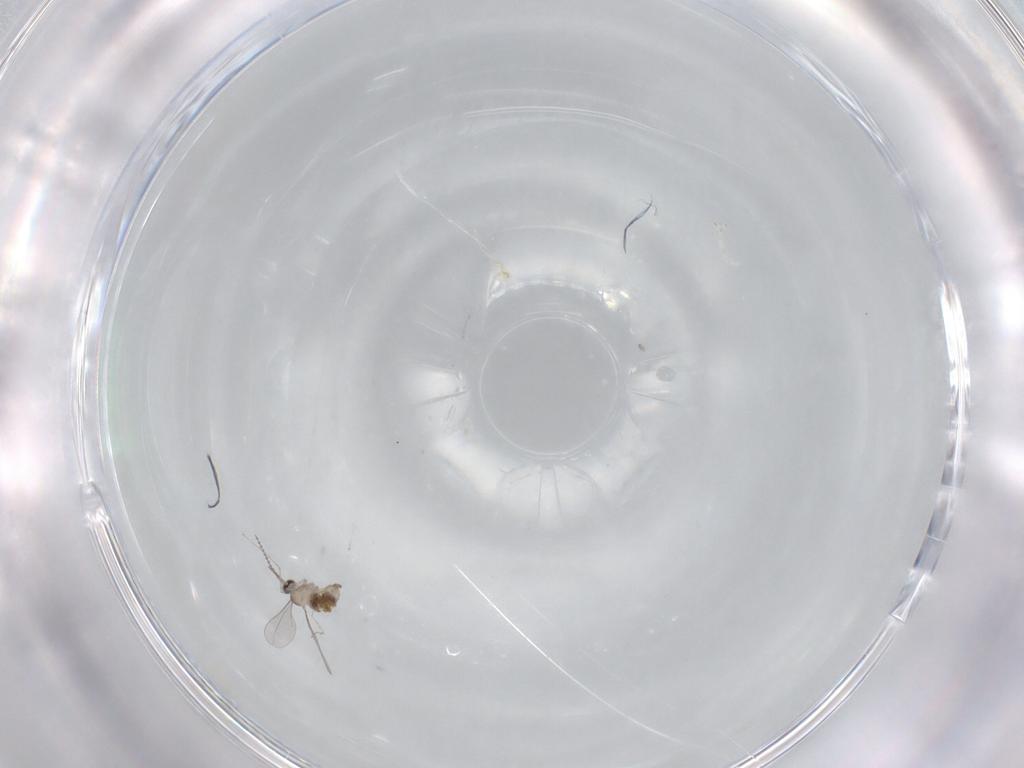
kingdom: Animalia
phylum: Arthropoda
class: Insecta
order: Diptera
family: Cecidomyiidae
